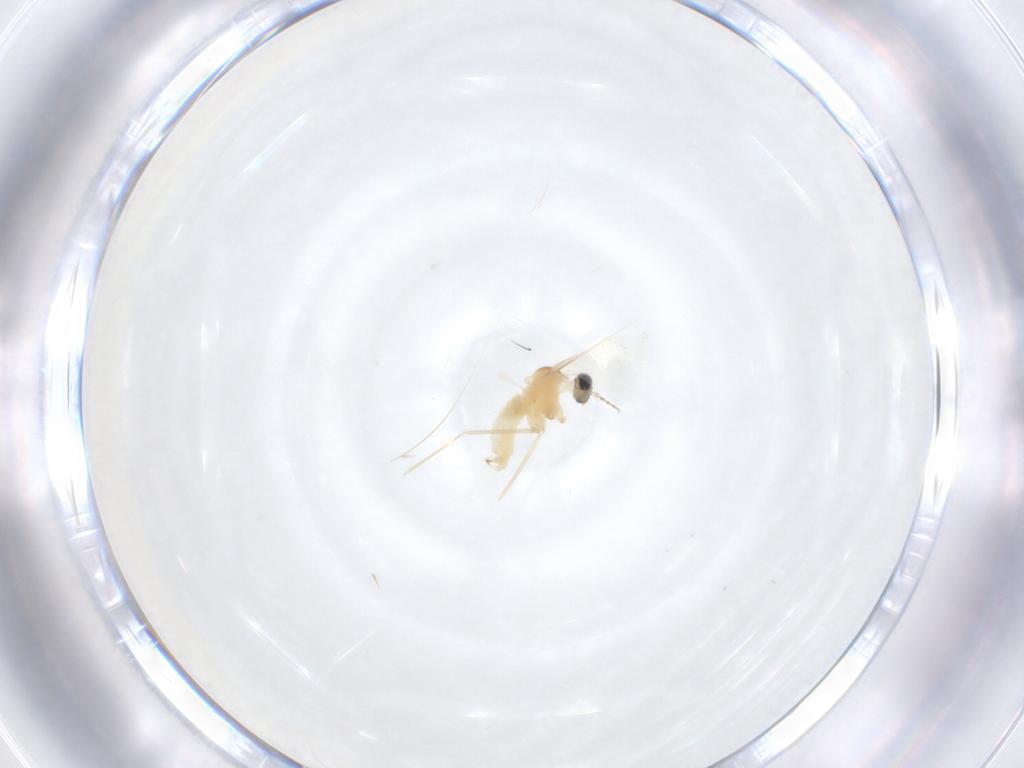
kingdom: Animalia
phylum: Arthropoda
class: Insecta
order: Diptera
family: Cecidomyiidae
